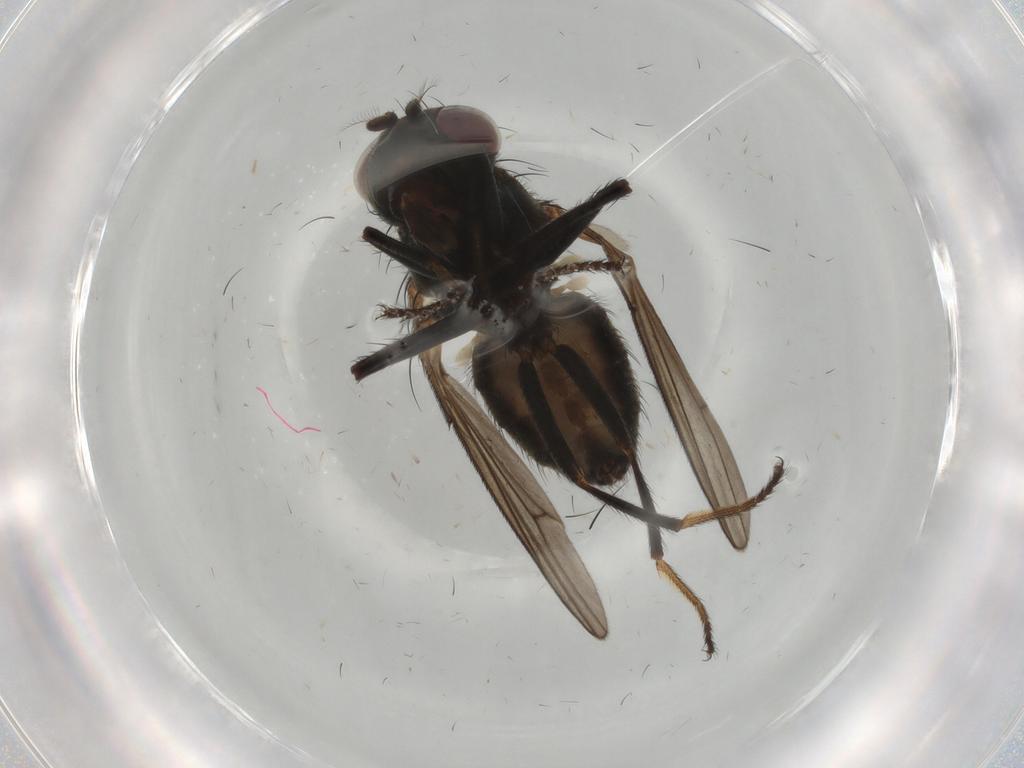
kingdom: Animalia
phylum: Arthropoda
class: Insecta
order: Diptera
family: Ephydridae
